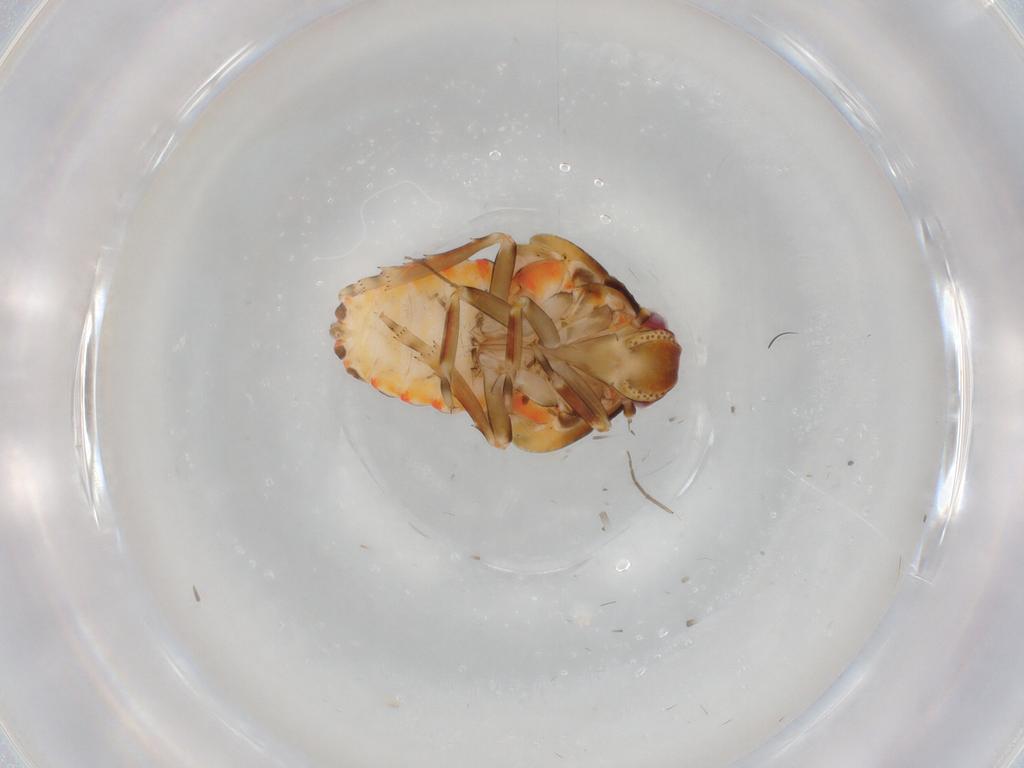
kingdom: Animalia
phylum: Arthropoda
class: Insecta
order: Hemiptera
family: Flatidae
